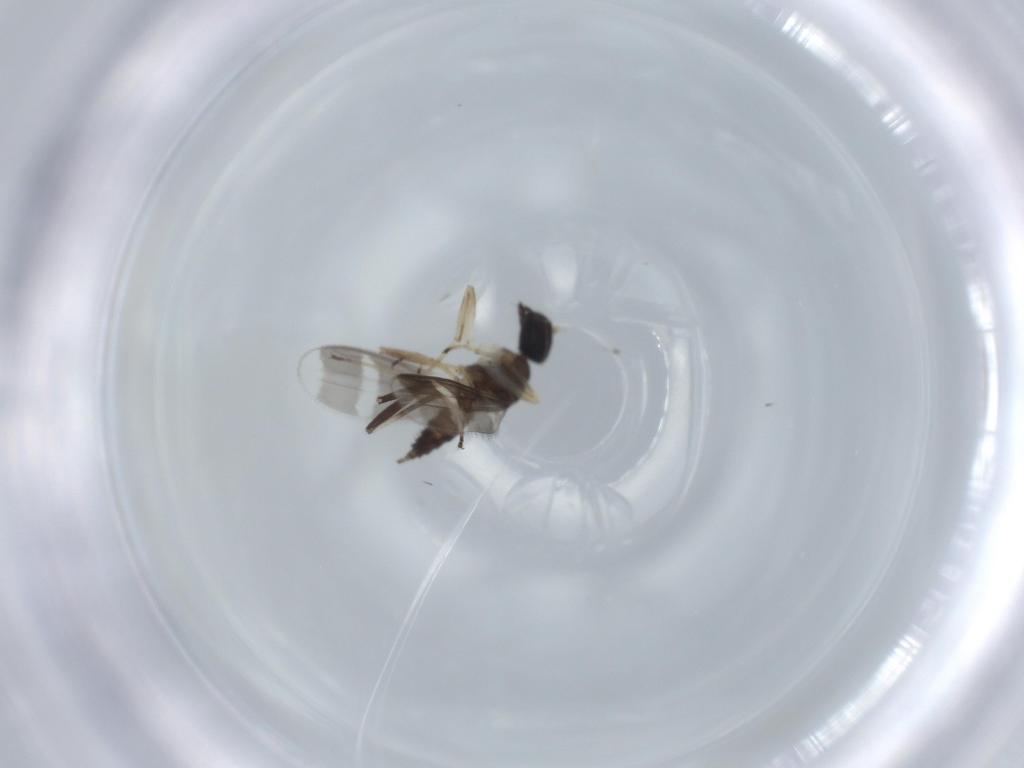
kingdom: Animalia
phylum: Arthropoda
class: Insecta
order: Diptera
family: Hybotidae
